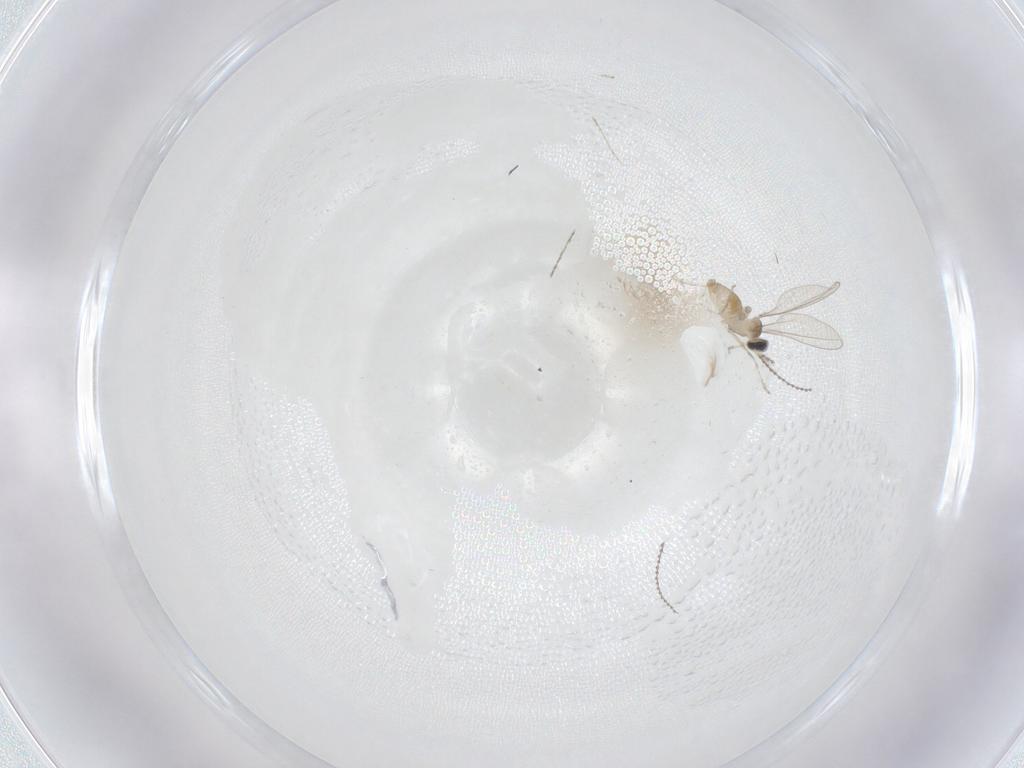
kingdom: Animalia
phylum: Arthropoda
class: Insecta
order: Diptera
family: Cecidomyiidae
